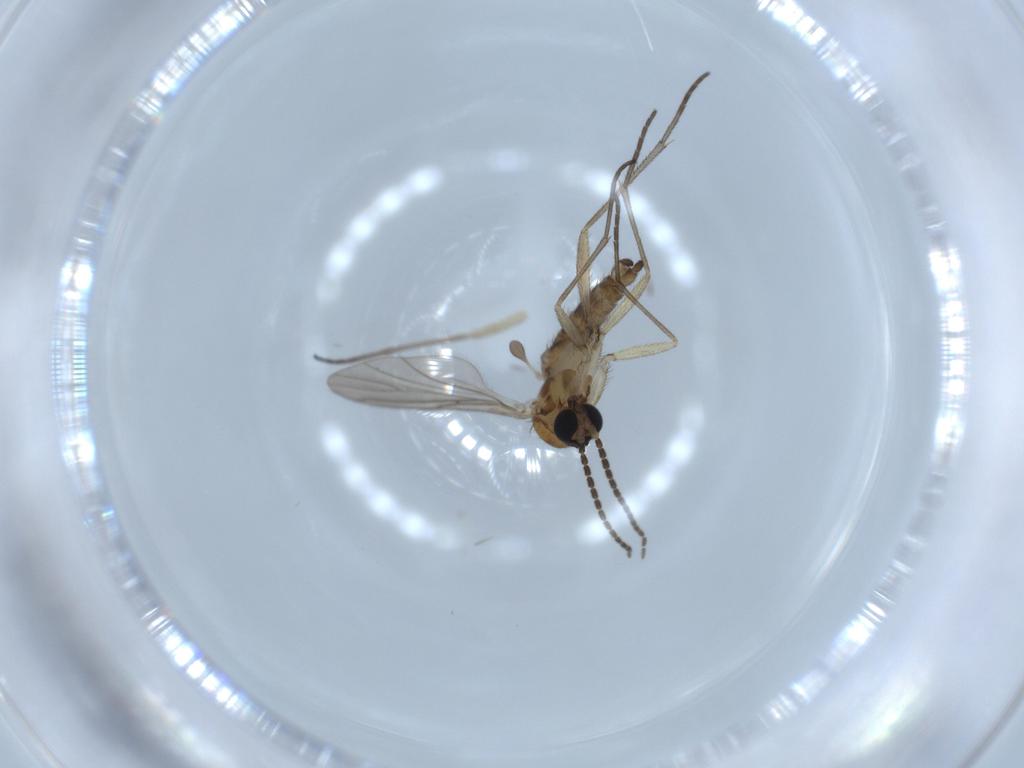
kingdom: Animalia
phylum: Arthropoda
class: Insecta
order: Diptera
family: Sciaridae
